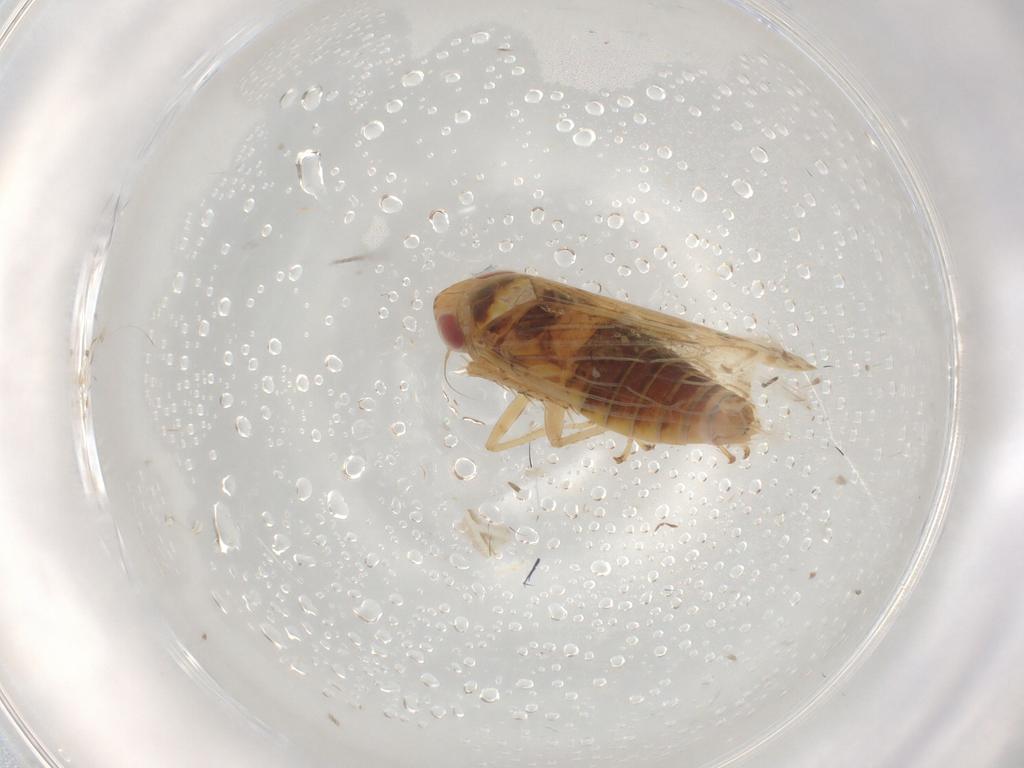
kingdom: Animalia
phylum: Arthropoda
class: Insecta
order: Hemiptera
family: Cicadellidae
